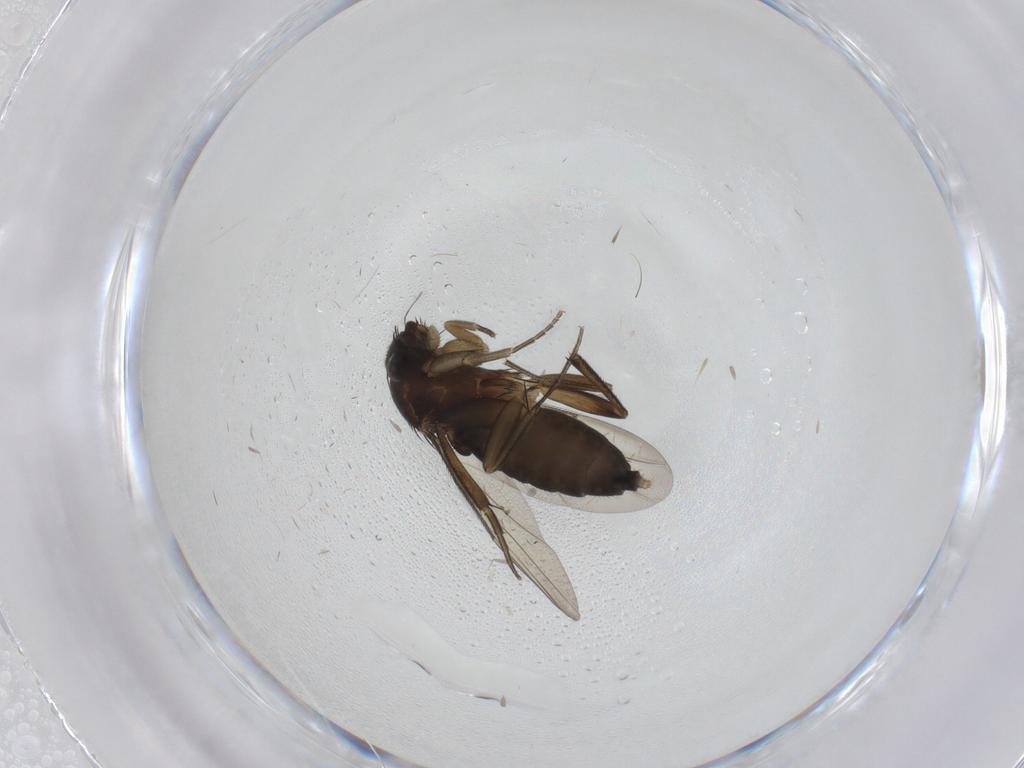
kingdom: Animalia
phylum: Arthropoda
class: Insecta
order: Diptera
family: Phoridae
